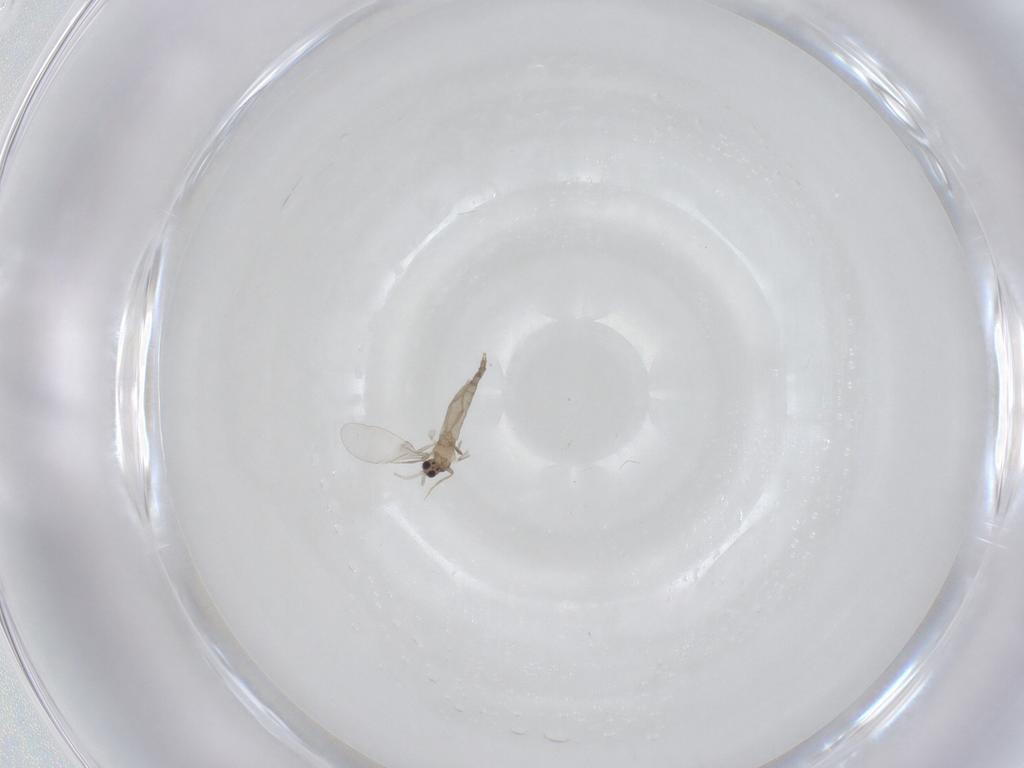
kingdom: Animalia
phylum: Arthropoda
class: Insecta
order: Diptera
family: Cecidomyiidae
